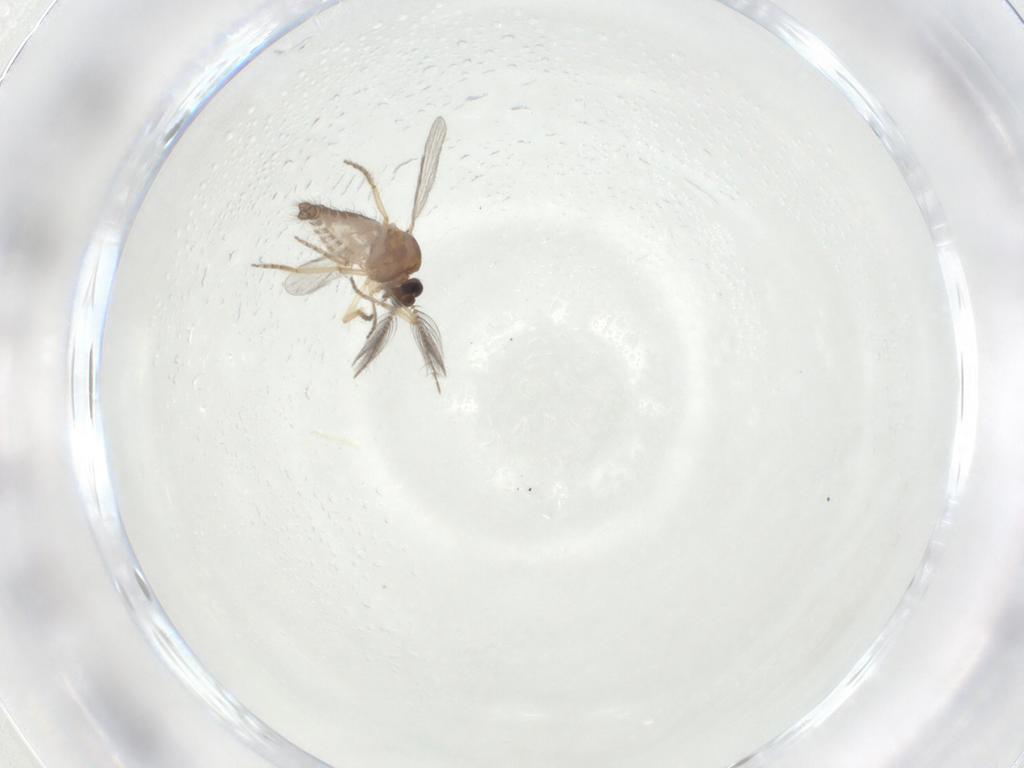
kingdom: Animalia
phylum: Arthropoda
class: Insecta
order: Diptera
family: Ceratopogonidae
